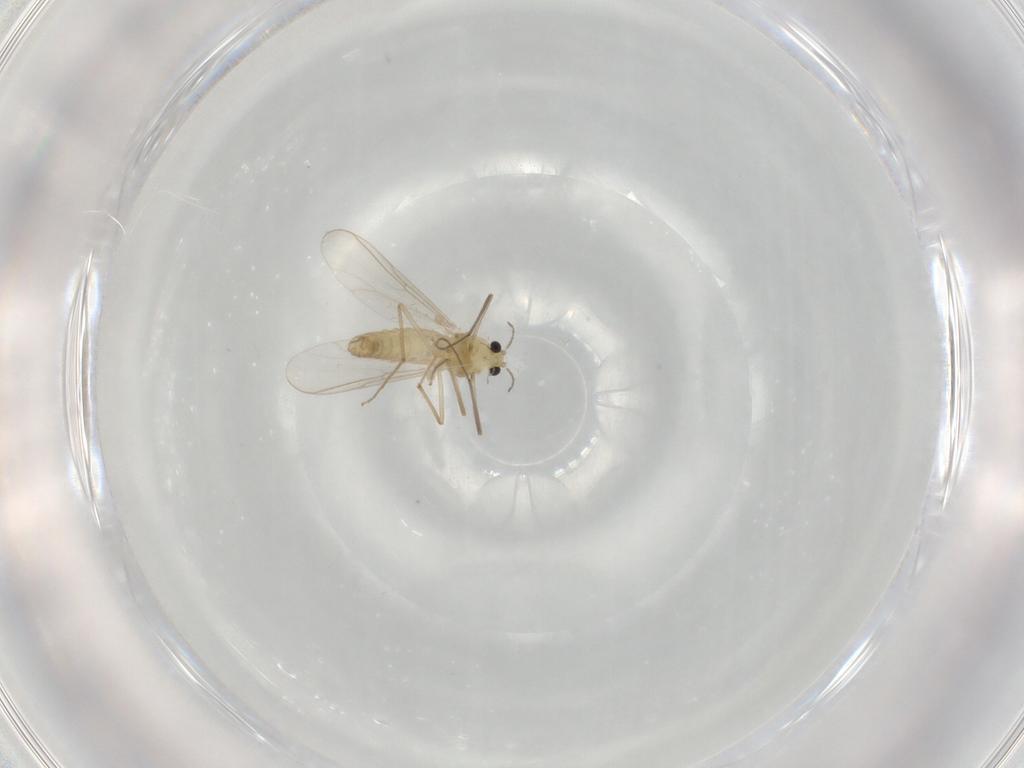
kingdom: Animalia
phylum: Arthropoda
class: Insecta
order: Diptera
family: Chironomidae
